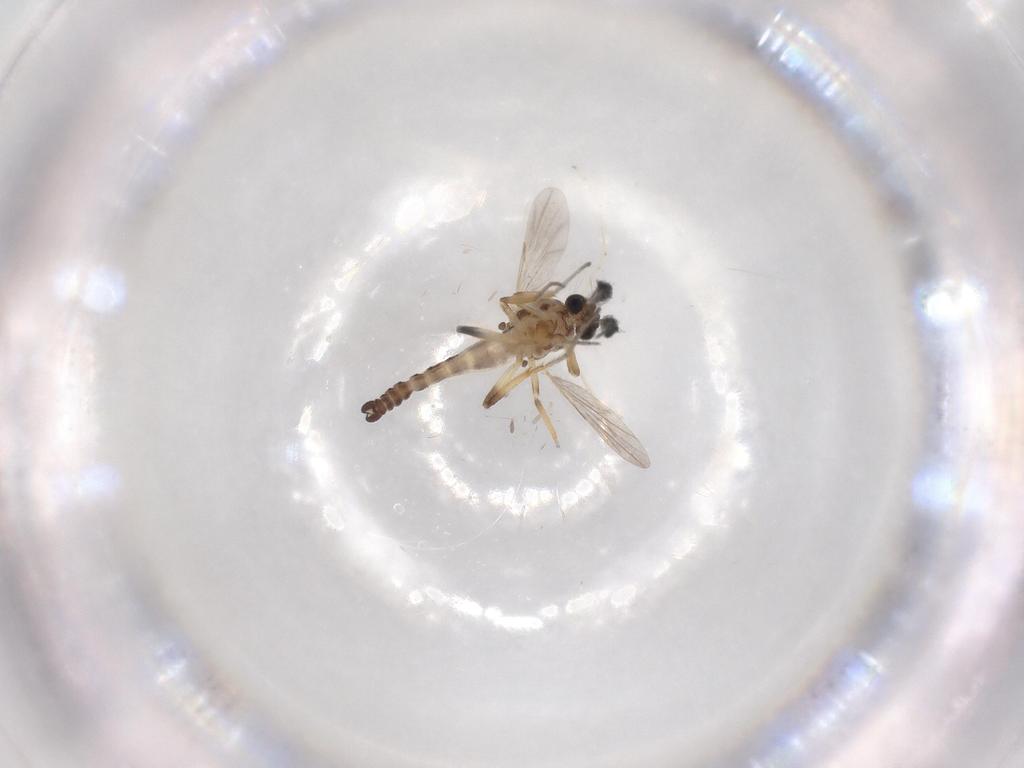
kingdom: Animalia
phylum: Arthropoda
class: Insecta
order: Diptera
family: Ceratopogonidae
